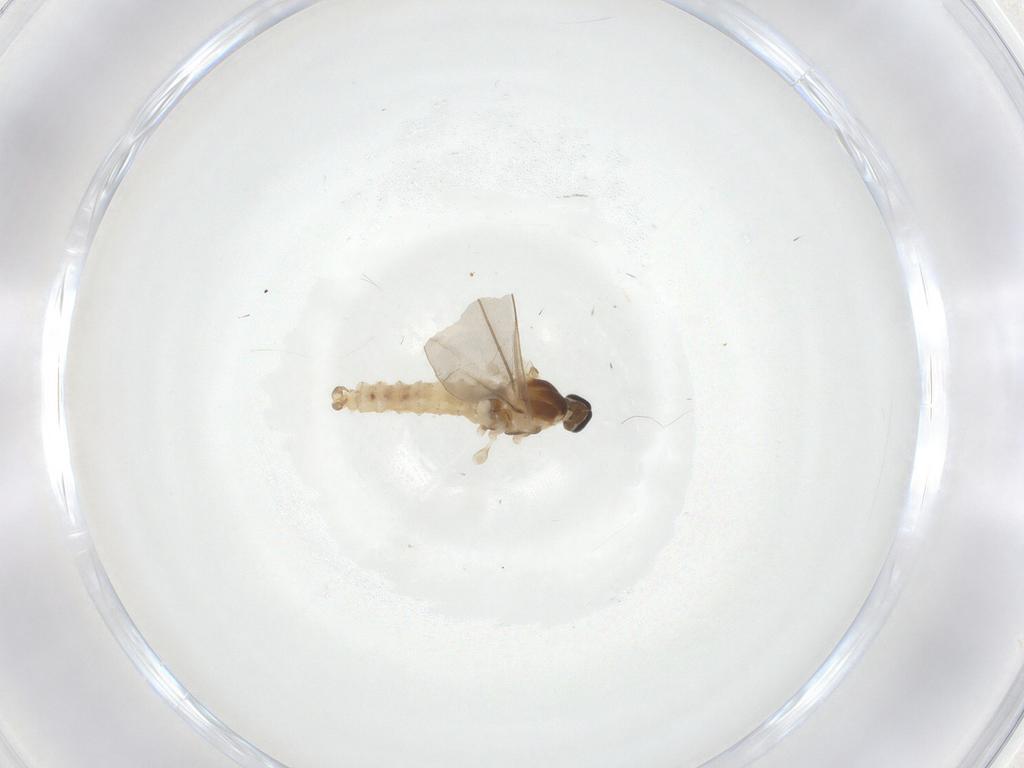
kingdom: Animalia
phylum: Arthropoda
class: Insecta
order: Diptera
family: Cecidomyiidae
